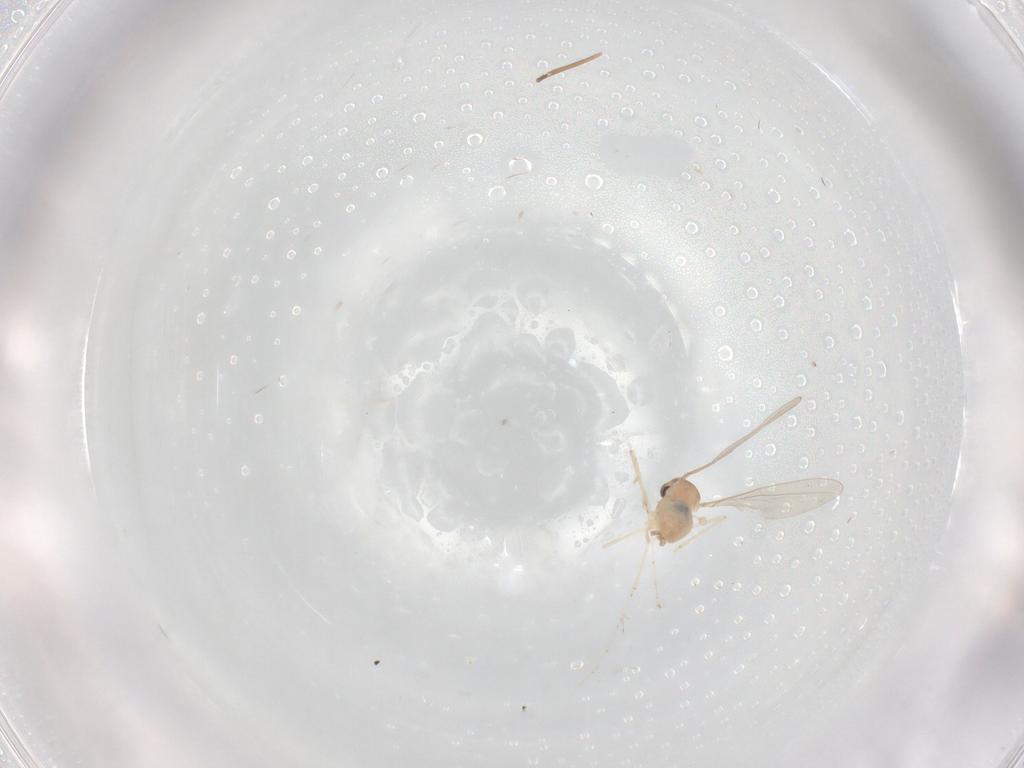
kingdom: Animalia
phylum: Arthropoda
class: Insecta
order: Diptera
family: Cecidomyiidae
